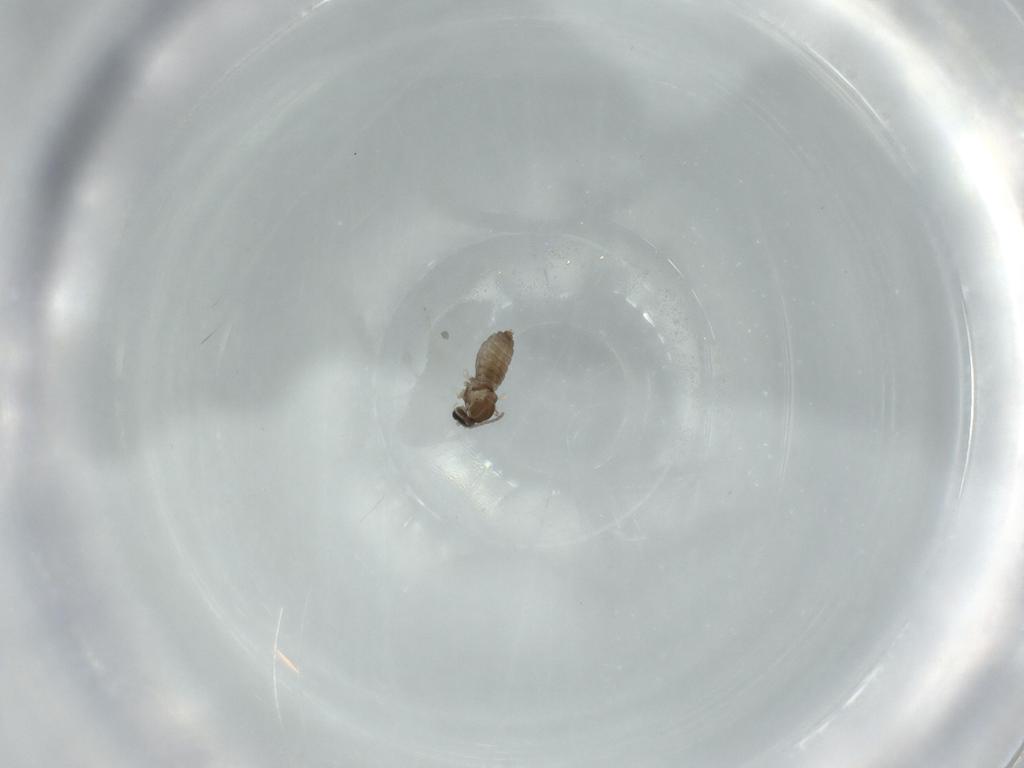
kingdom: Animalia
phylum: Arthropoda
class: Insecta
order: Diptera
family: Cecidomyiidae
